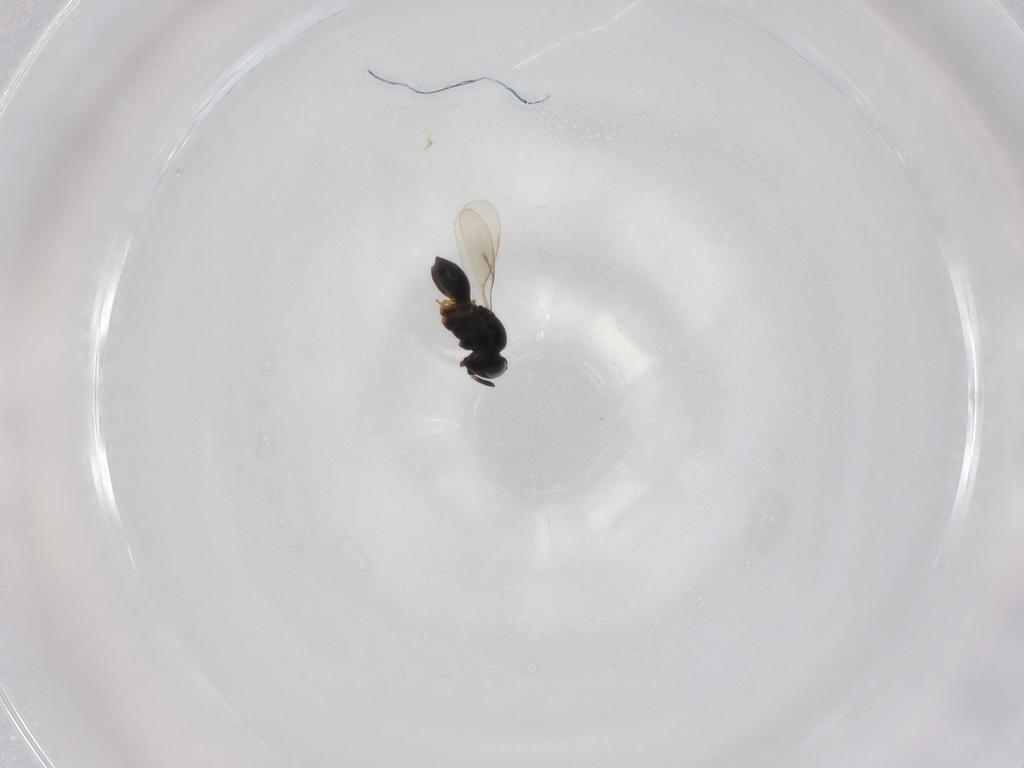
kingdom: Animalia
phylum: Arthropoda
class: Insecta
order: Hymenoptera
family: Scelionidae
